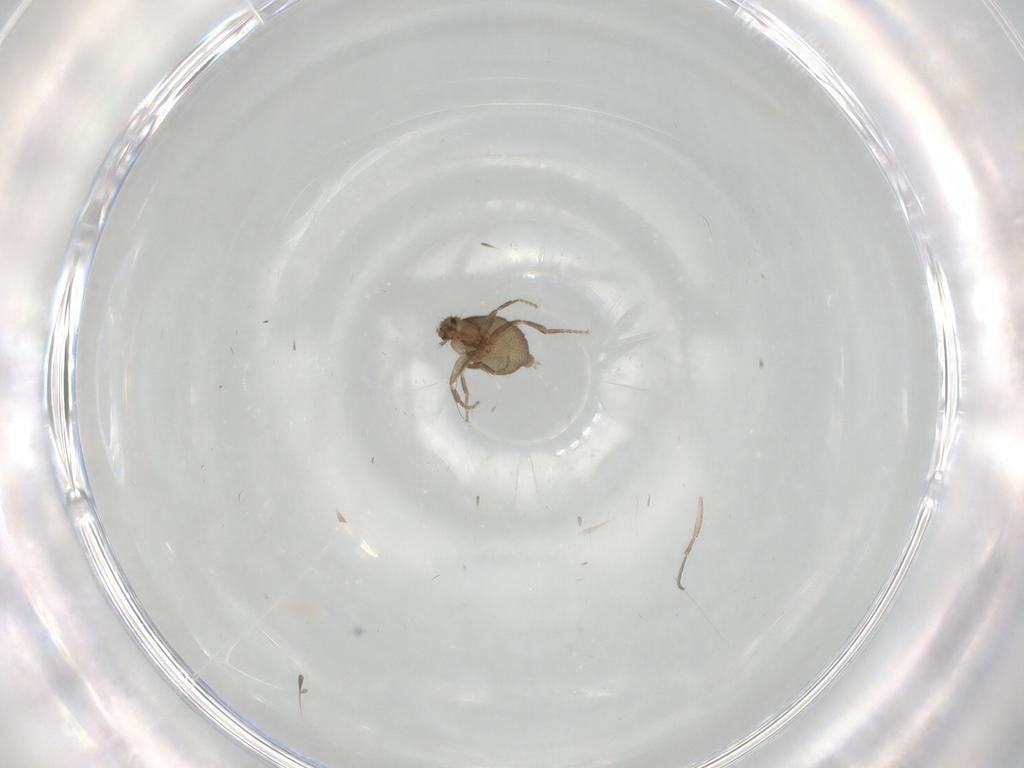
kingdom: Animalia
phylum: Arthropoda
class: Insecta
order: Diptera
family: Phoridae
